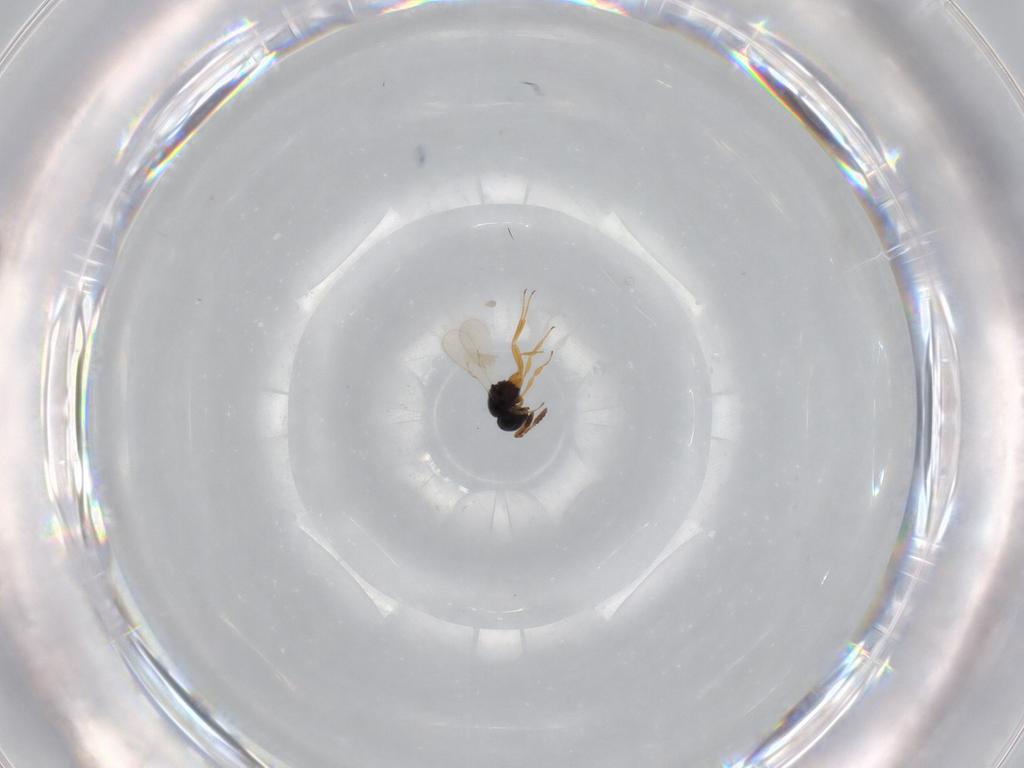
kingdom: Animalia
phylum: Arthropoda
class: Insecta
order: Hymenoptera
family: Scelionidae
